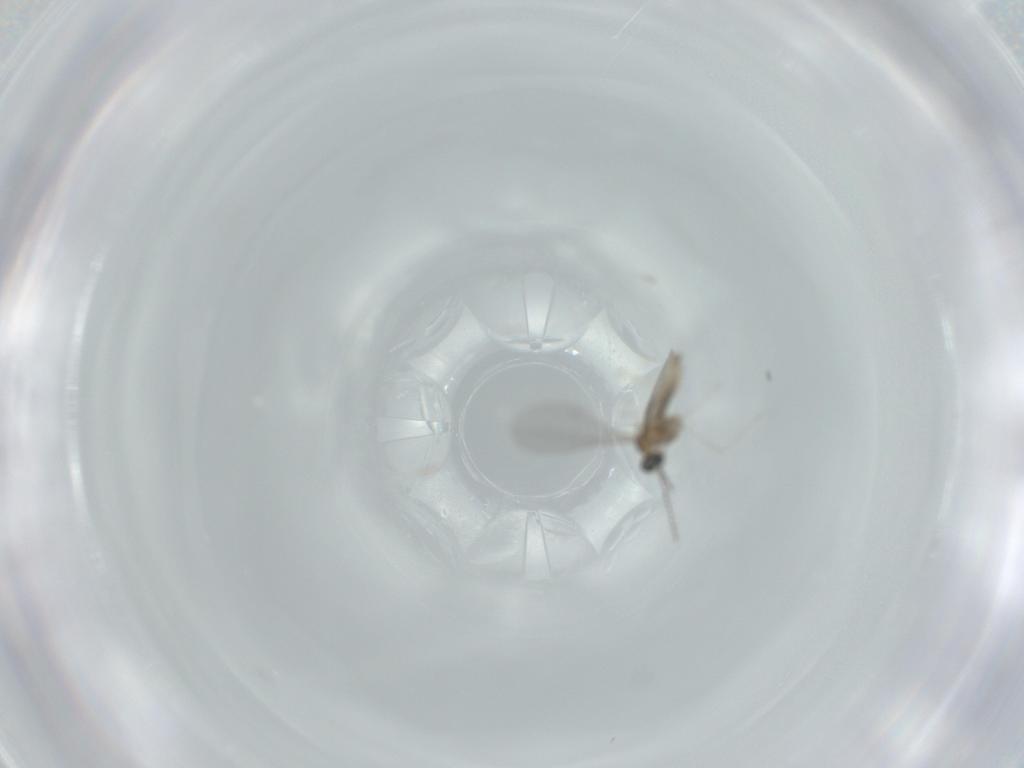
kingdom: Animalia
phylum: Arthropoda
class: Insecta
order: Diptera
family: Cecidomyiidae
